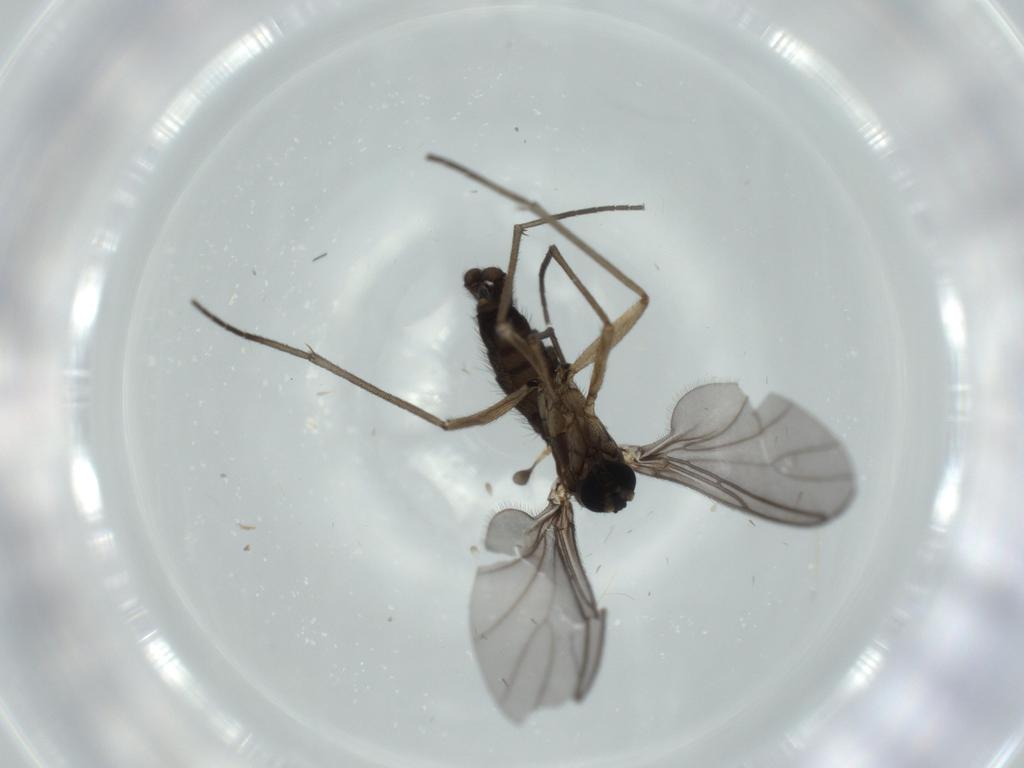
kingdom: Animalia
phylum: Arthropoda
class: Insecta
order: Diptera
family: Sciaridae
